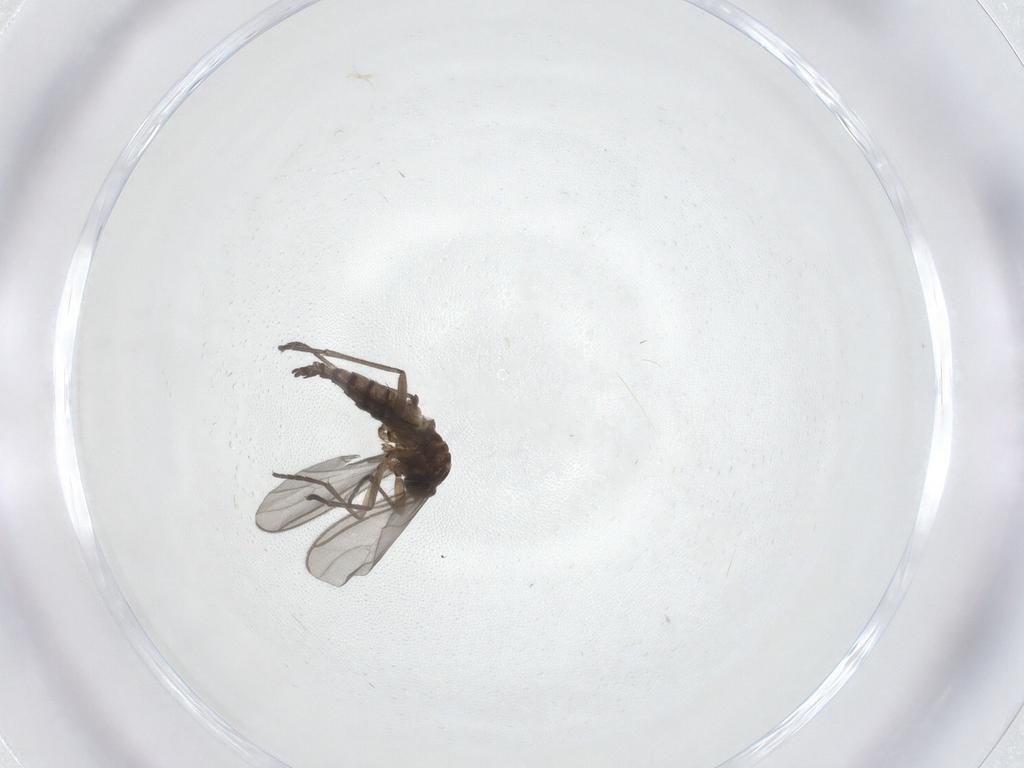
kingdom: Animalia
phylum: Arthropoda
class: Insecta
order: Diptera
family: Sciaridae
